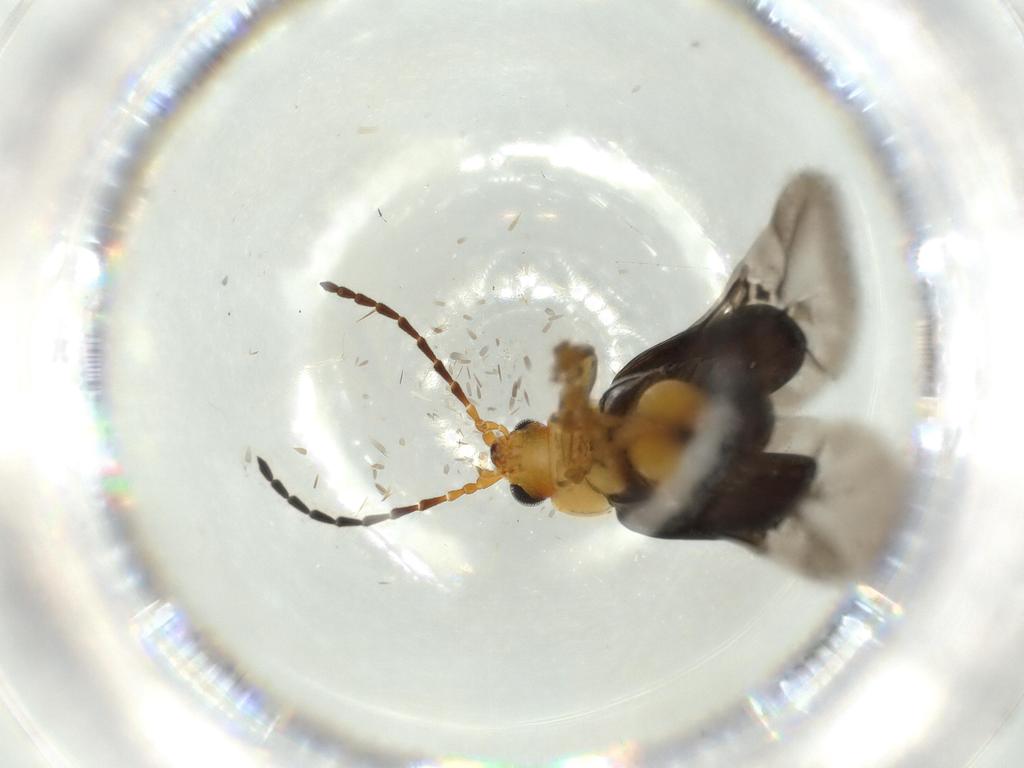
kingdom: Animalia
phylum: Arthropoda
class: Insecta
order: Coleoptera
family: Chrysomelidae
